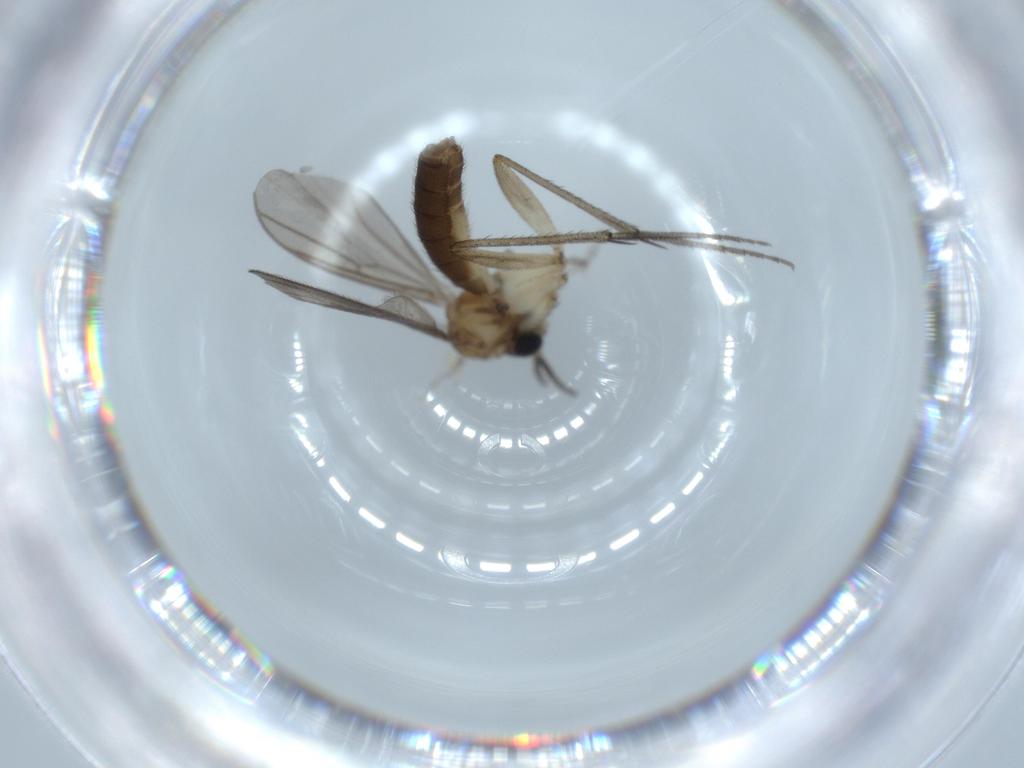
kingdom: Animalia
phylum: Arthropoda
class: Insecta
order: Diptera
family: Mycetophilidae
